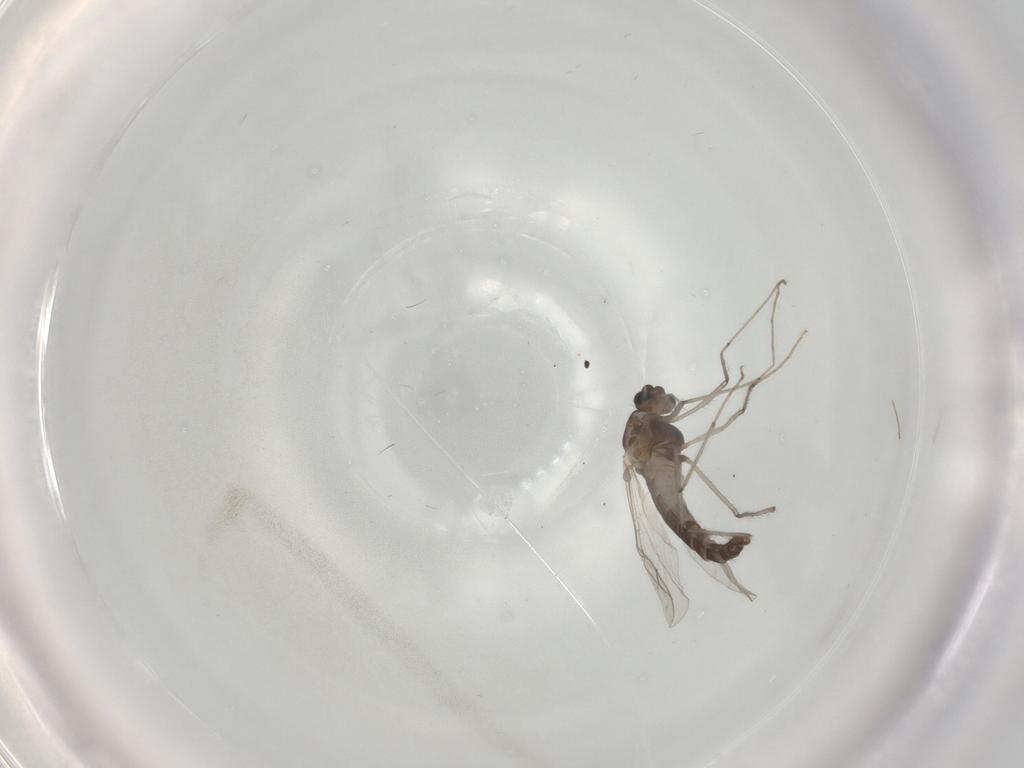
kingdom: Animalia
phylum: Arthropoda
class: Insecta
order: Diptera
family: Chironomidae
